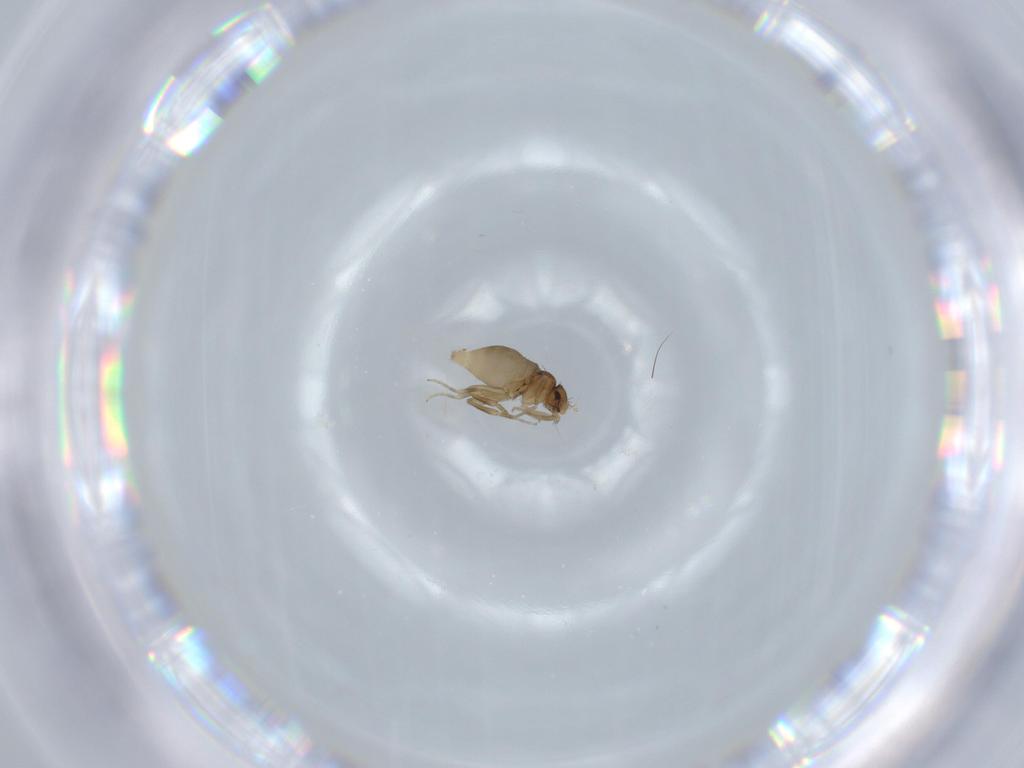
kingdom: Animalia
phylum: Arthropoda
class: Insecta
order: Diptera
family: Phoridae
